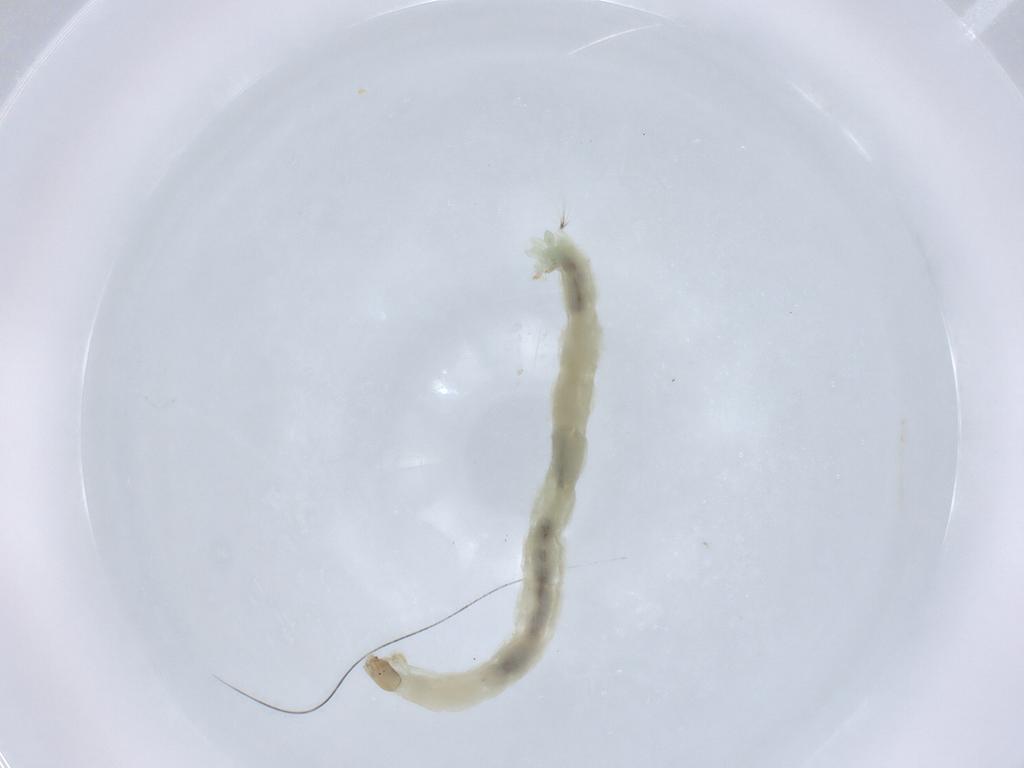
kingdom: Animalia
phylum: Arthropoda
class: Insecta
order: Diptera
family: Chironomidae
